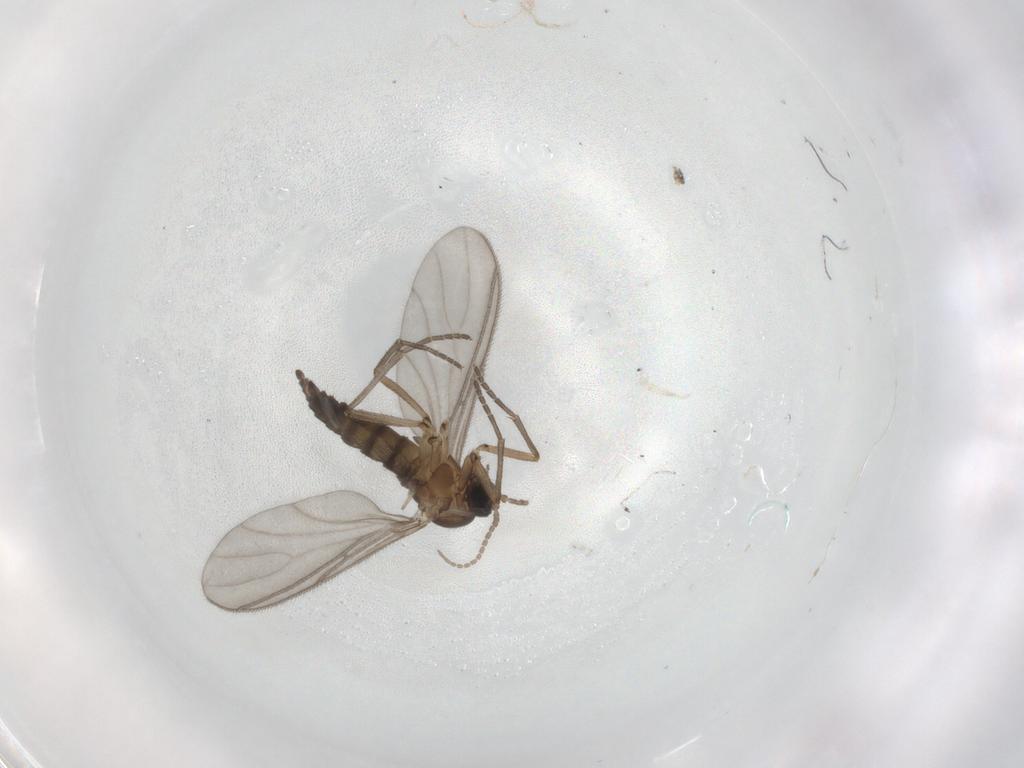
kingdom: Animalia
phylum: Arthropoda
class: Insecta
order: Diptera
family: Sciaridae
